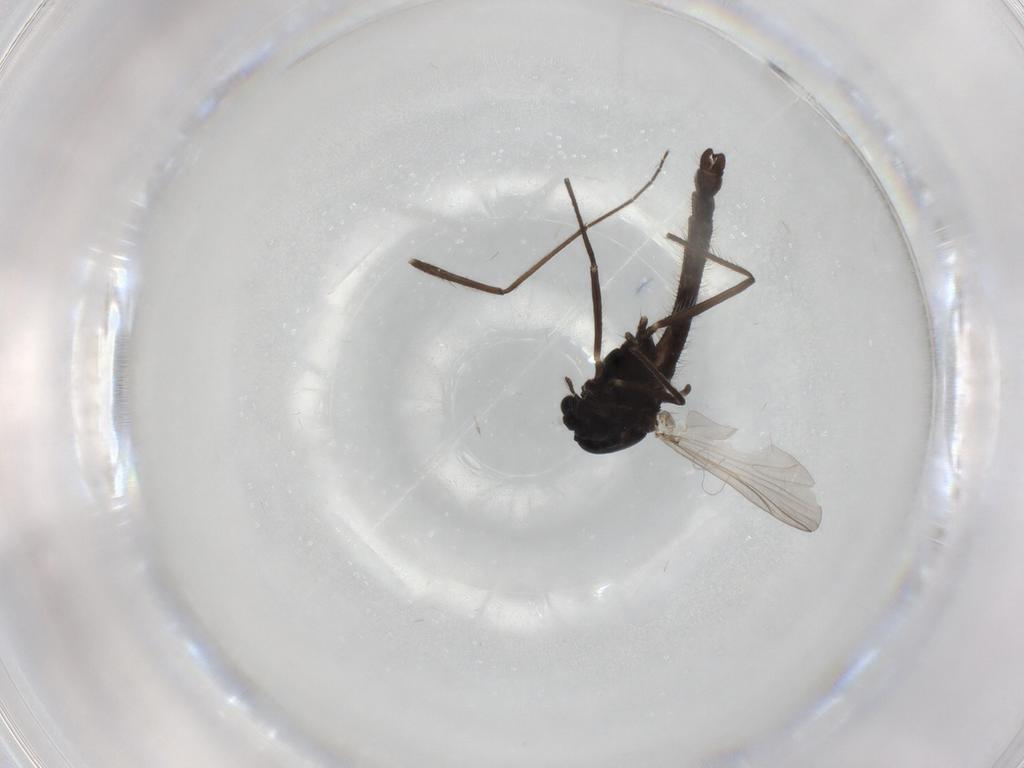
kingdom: Animalia
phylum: Arthropoda
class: Insecta
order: Diptera
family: Chironomidae
